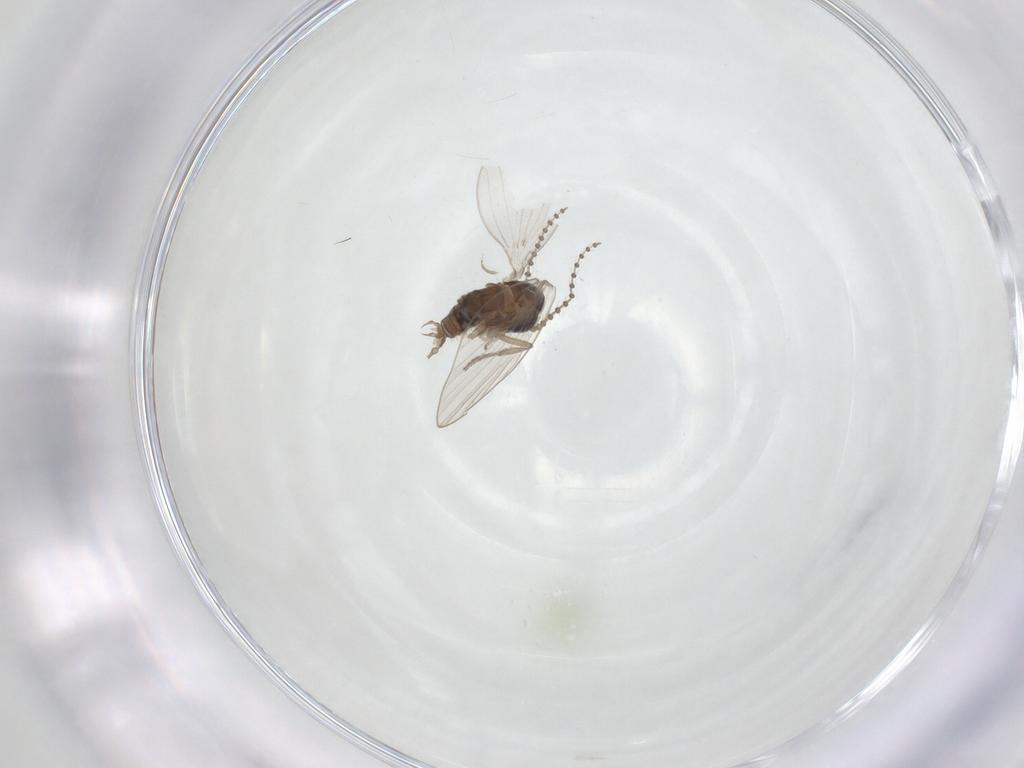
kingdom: Animalia
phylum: Arthropoda
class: Insecta
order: Diptera
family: Psychodidae
